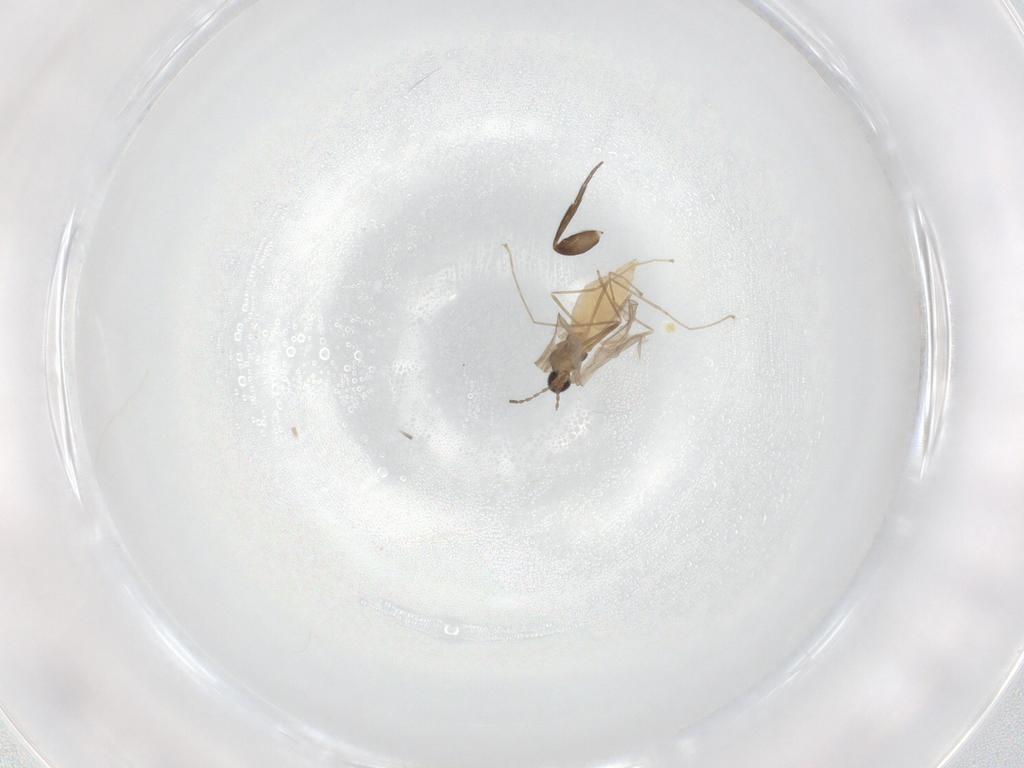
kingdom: Animalia
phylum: Arthropoda
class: Insecta
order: Diptera
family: Cecidomyiidae
